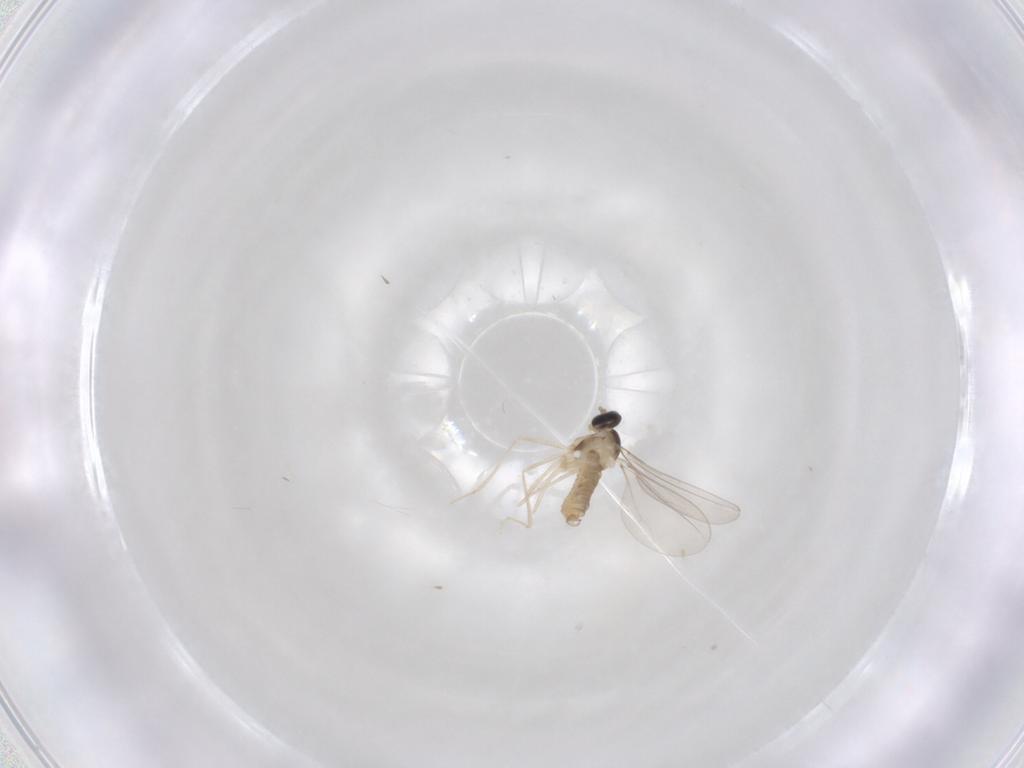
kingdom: Animalia
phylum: Arthropoda
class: Insecta
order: Diptera
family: Cecidomyiidae
